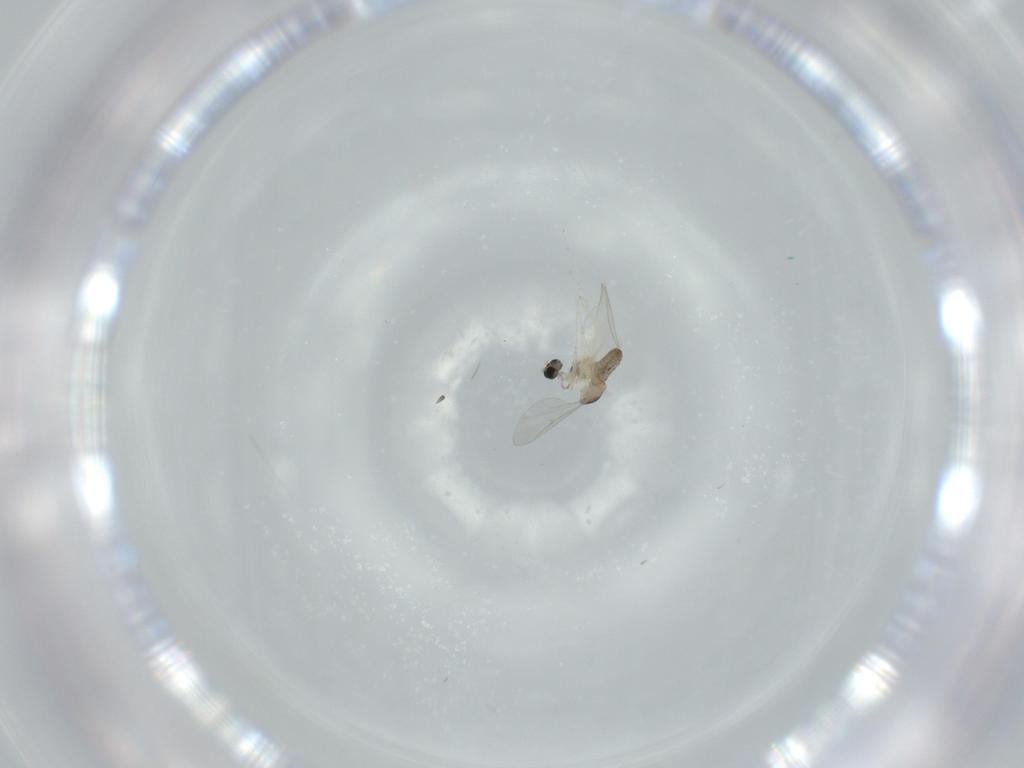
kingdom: Animalia
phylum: Arthropoda
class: Insecta
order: Diptera
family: Cecidomyiidae
